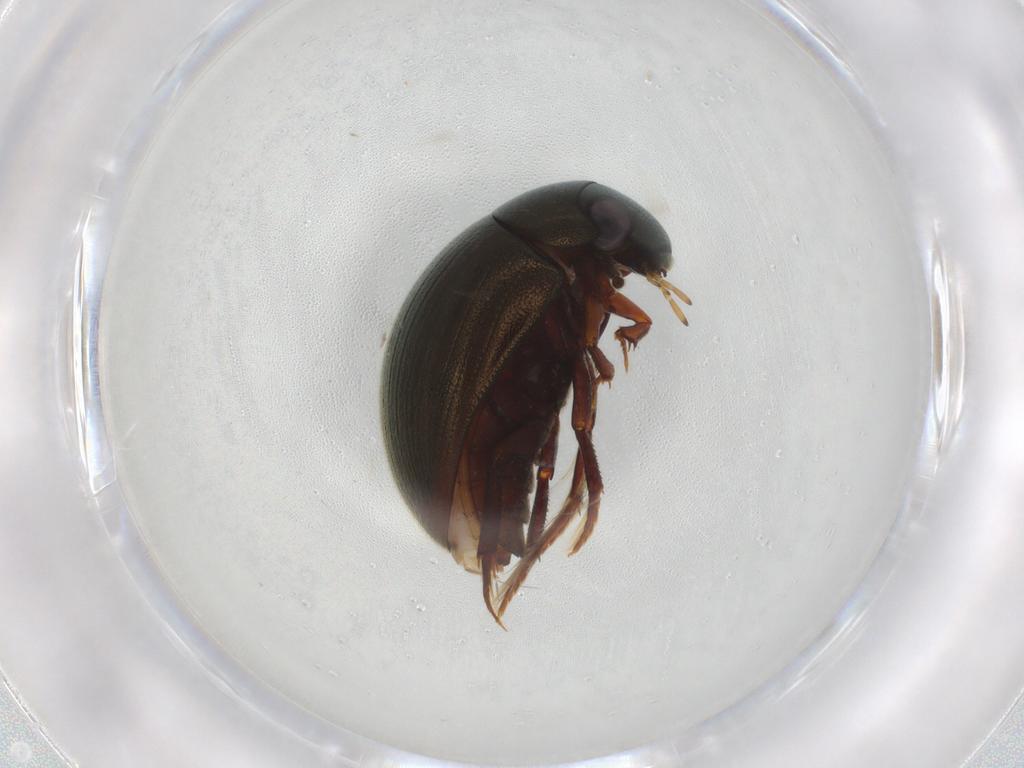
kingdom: Animalia
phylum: Arthropoda
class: Insecta
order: Coleoptera
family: Hydrophilidae
